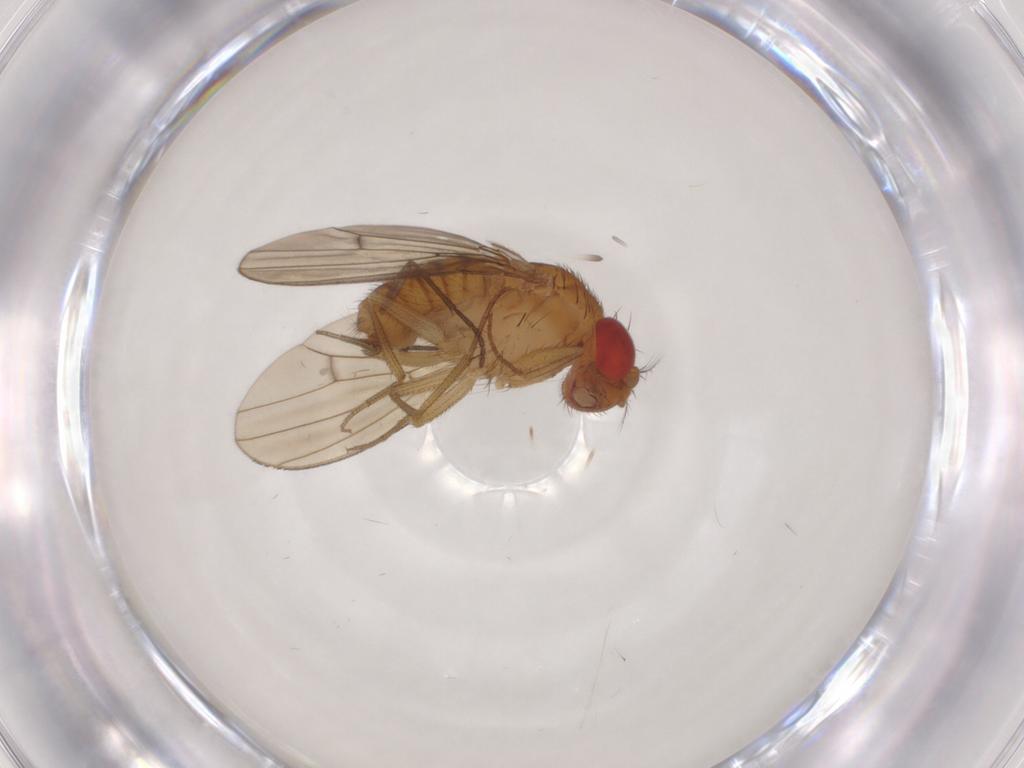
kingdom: Animalia
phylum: Arthropoda
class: Insecta
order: Diptera
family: Drosophilidae
